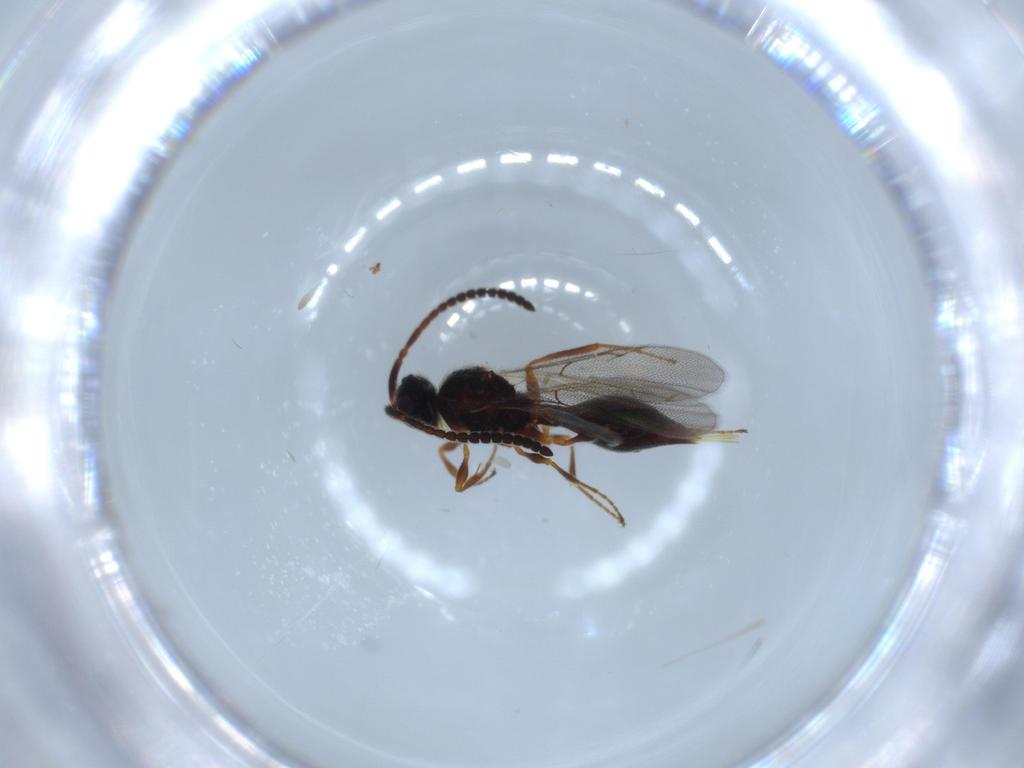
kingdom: Animalia
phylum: Arthropoda
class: Insecta
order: Hymenoptera
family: Diapriidae
